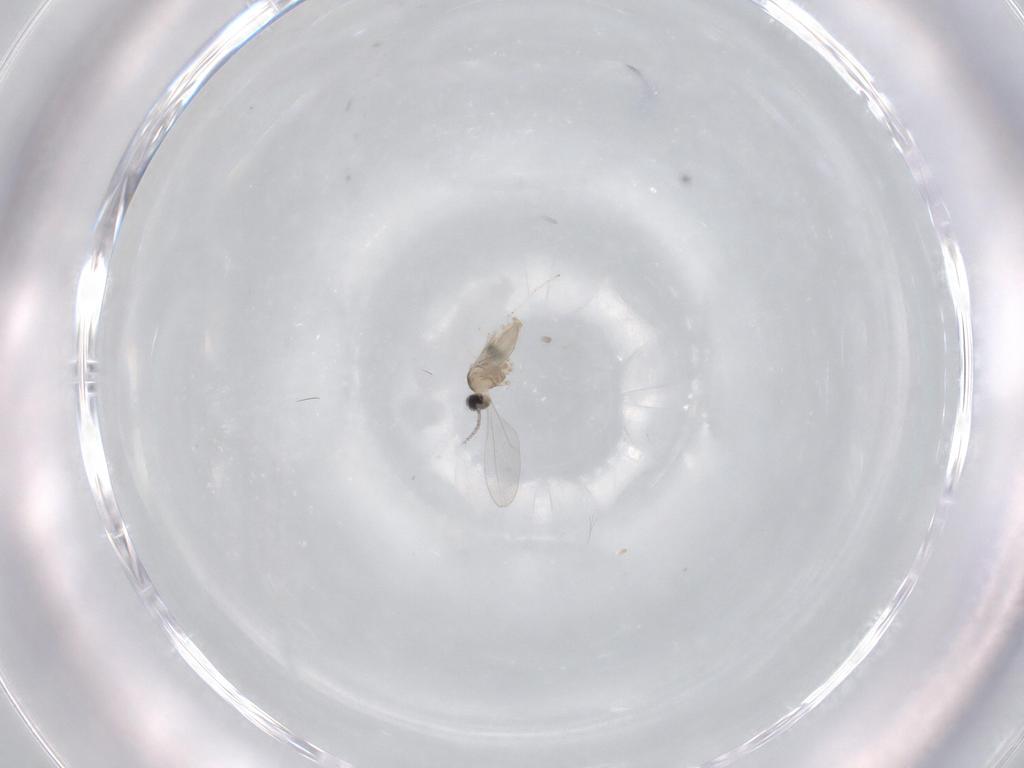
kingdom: Animalia
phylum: Arthropoda
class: Insecta
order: Diptera
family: Cecidomyiidae
